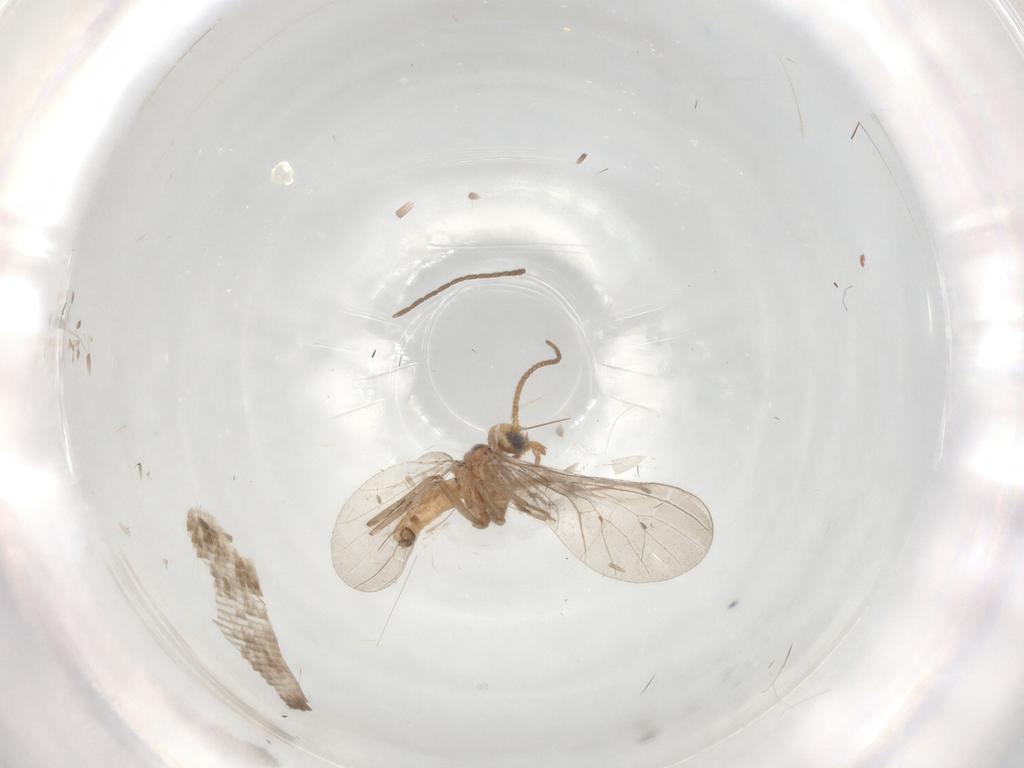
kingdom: Animalia
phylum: Arthropoda
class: Insecta
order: Neuroptera
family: Coniopterygidae
